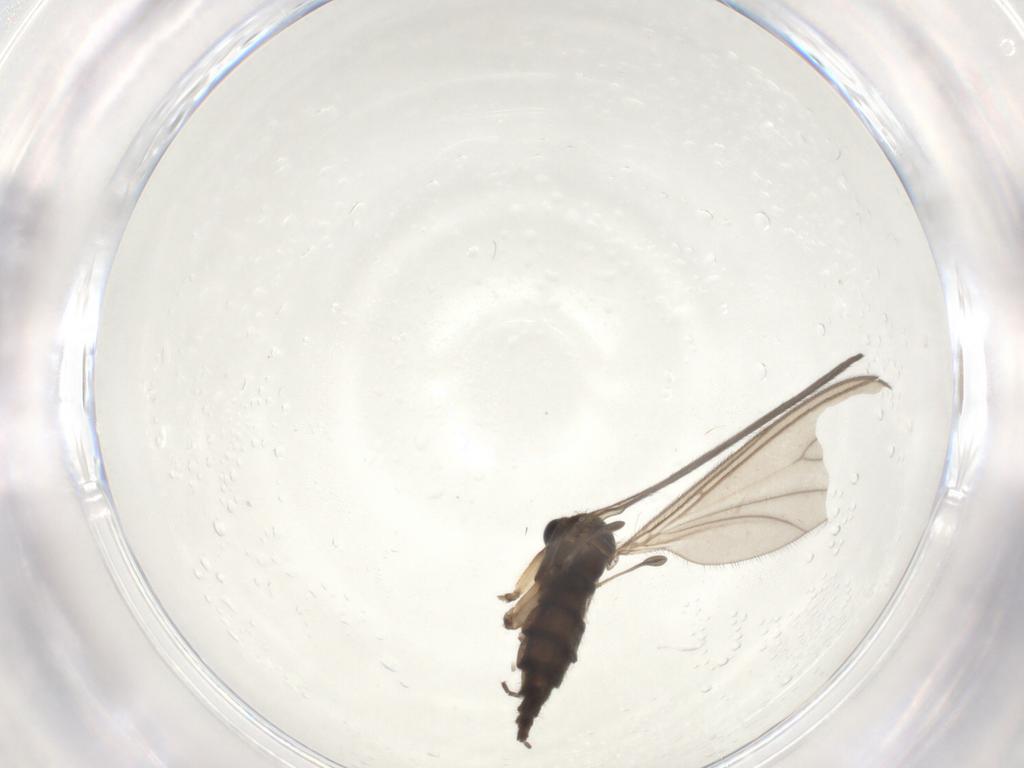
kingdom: Animalia
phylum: Arthropoda
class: Insecta
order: Diptera
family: Sciaridae
